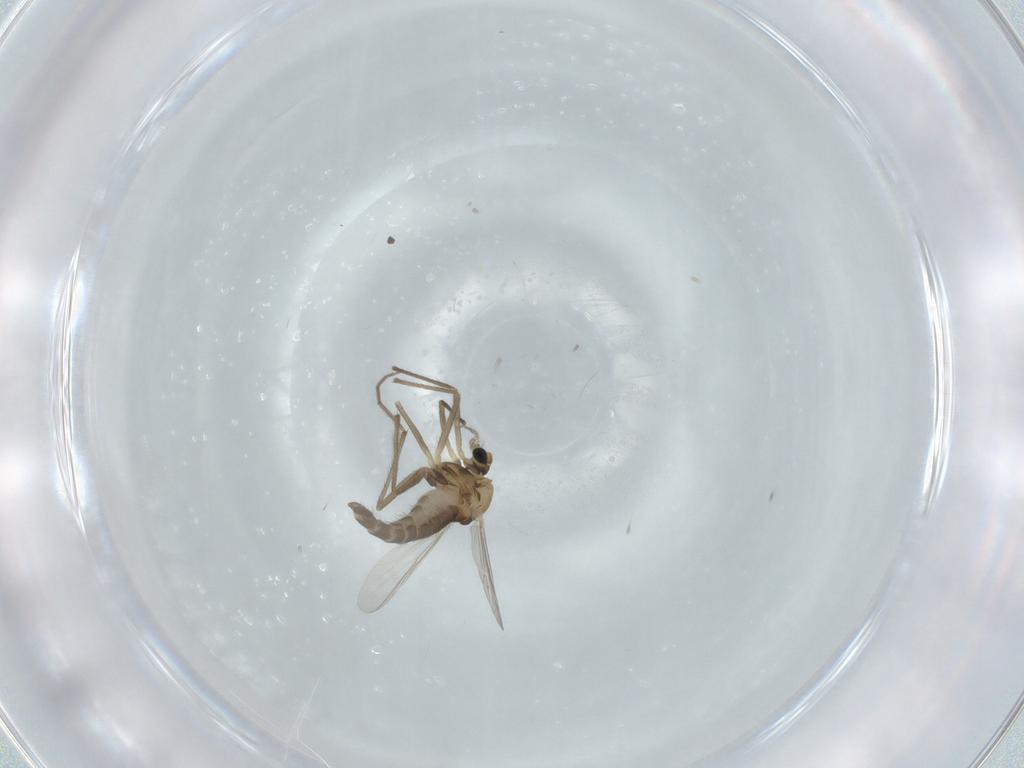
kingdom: Animalia
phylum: Arthropoda
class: Insecta
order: Diptera
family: Chironomidae
